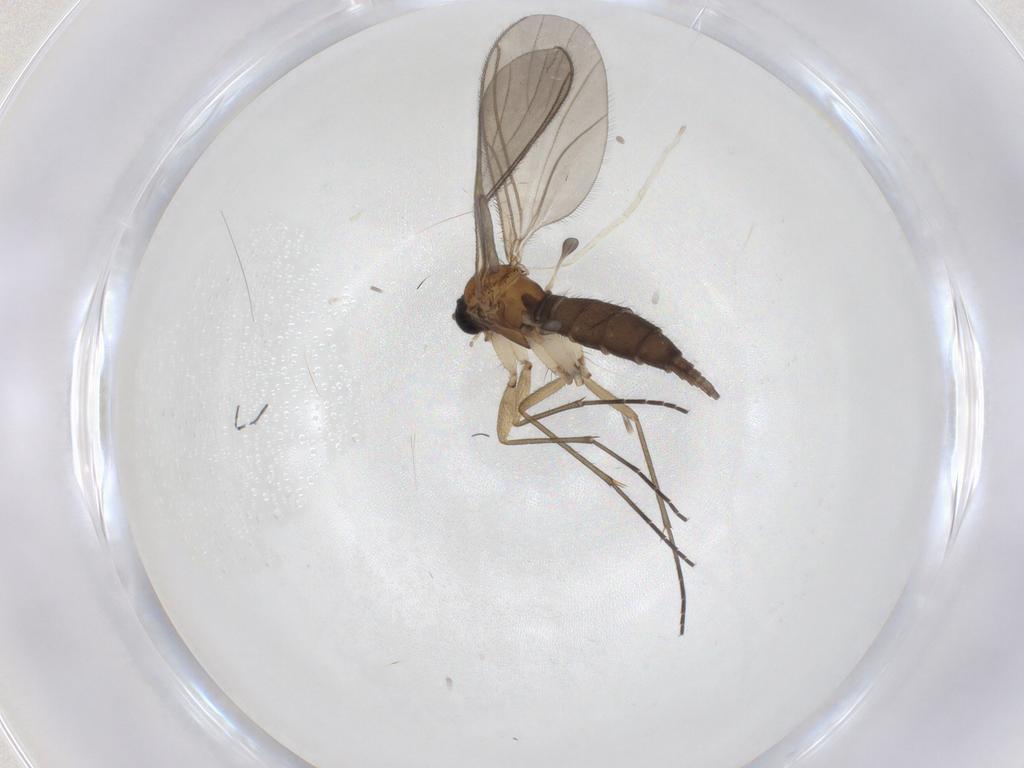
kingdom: Animalia
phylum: Arthropoda
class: Insecta
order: Diptera
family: Sciaridae
